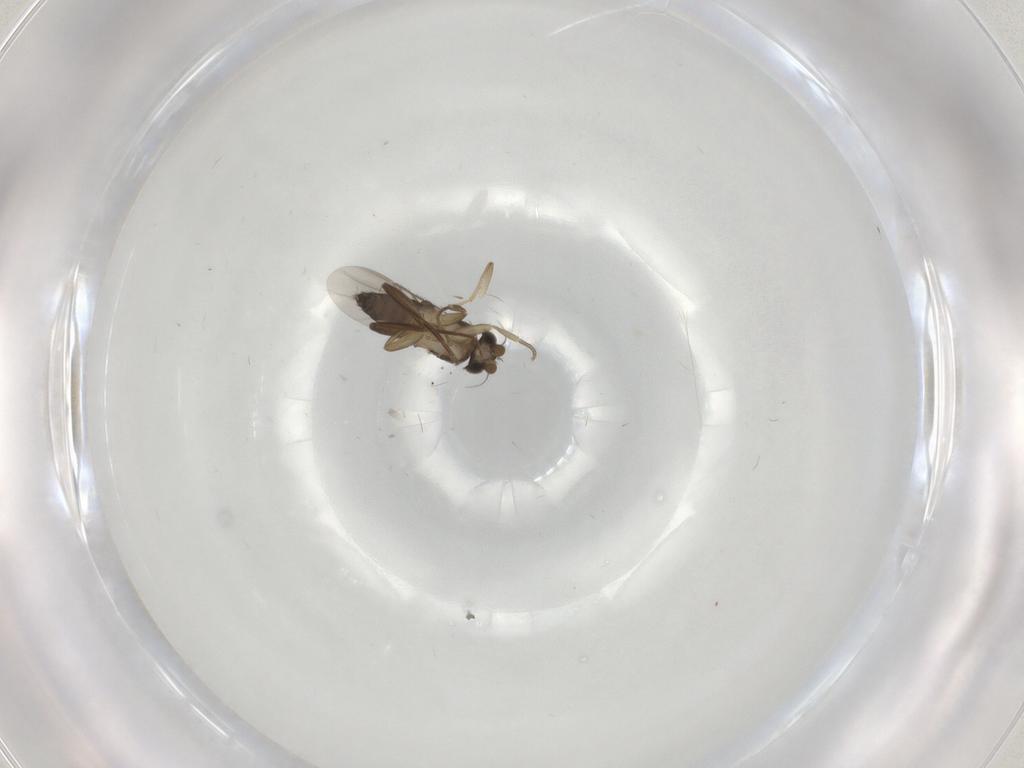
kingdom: Animalia
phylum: Arthropoda
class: Insecta
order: Diptera
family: Phoridae
